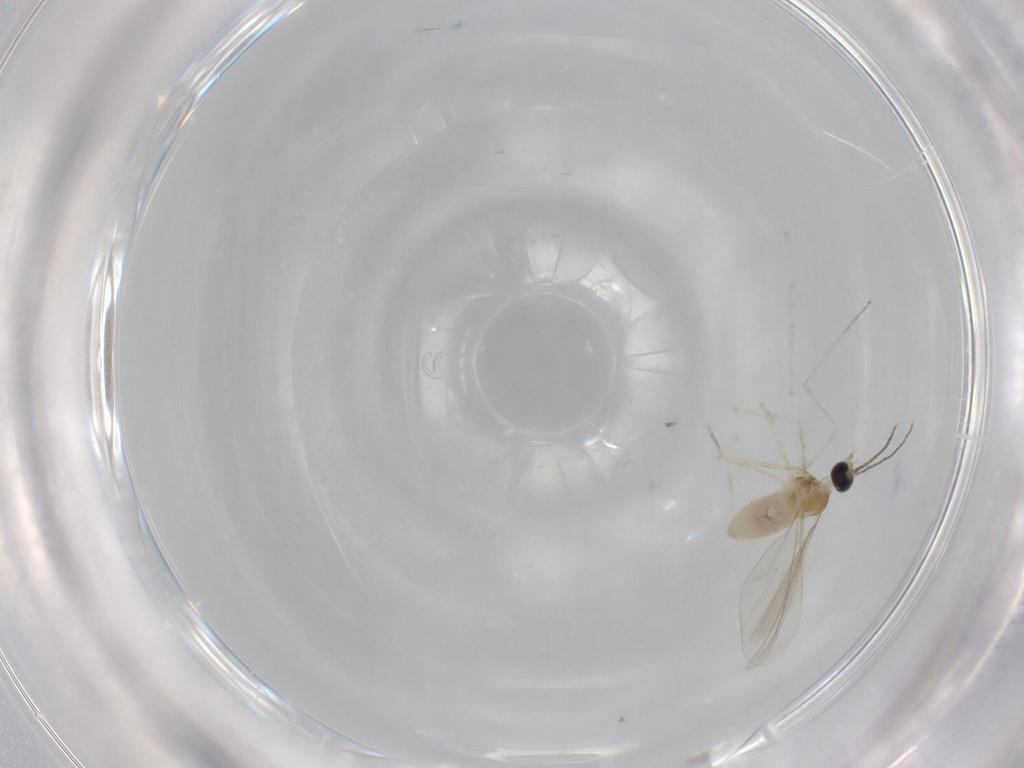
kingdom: Animalia
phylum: Arthropoda
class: Insecta
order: Diptera
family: Cecidomyiidae
